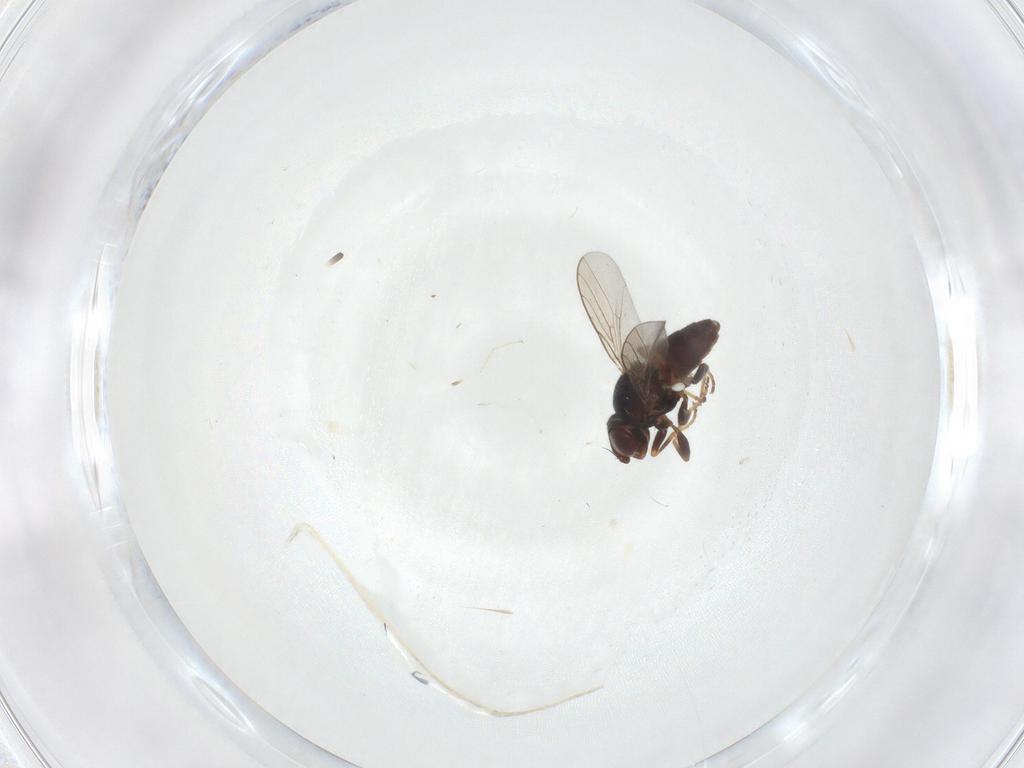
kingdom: Animalia
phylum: Arthropoda
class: Insecta
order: Diptera
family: Chloropidae
